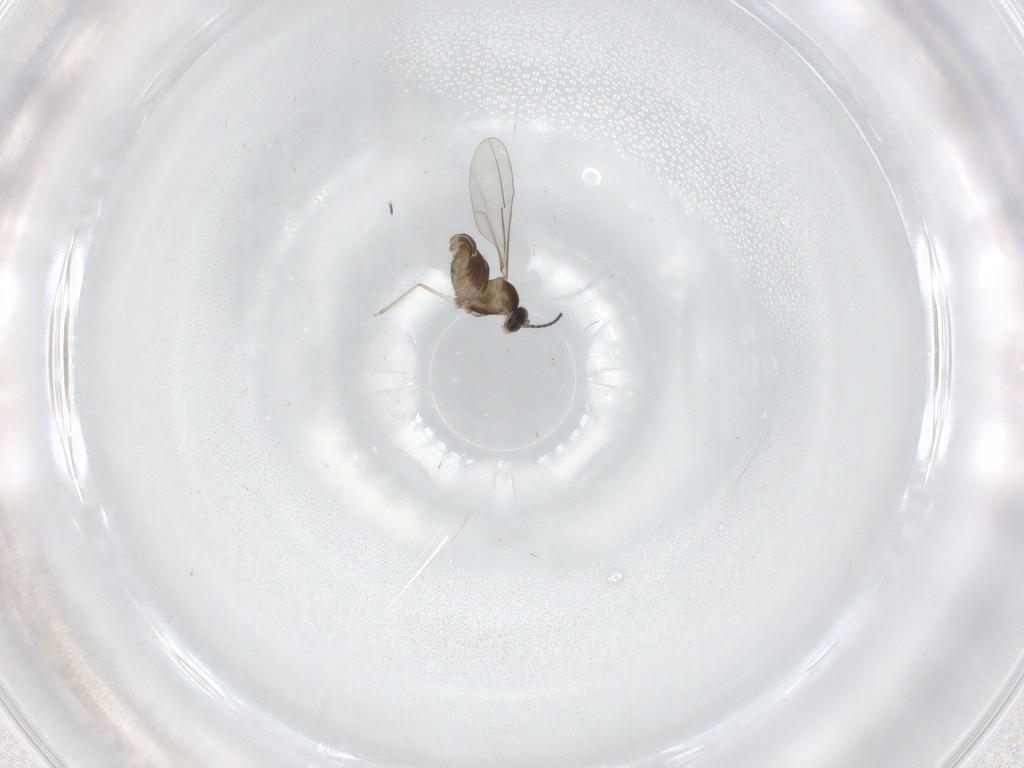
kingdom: Animalia
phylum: Arthropoda
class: Insecta
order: Diptera
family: Cecidomyiidae
